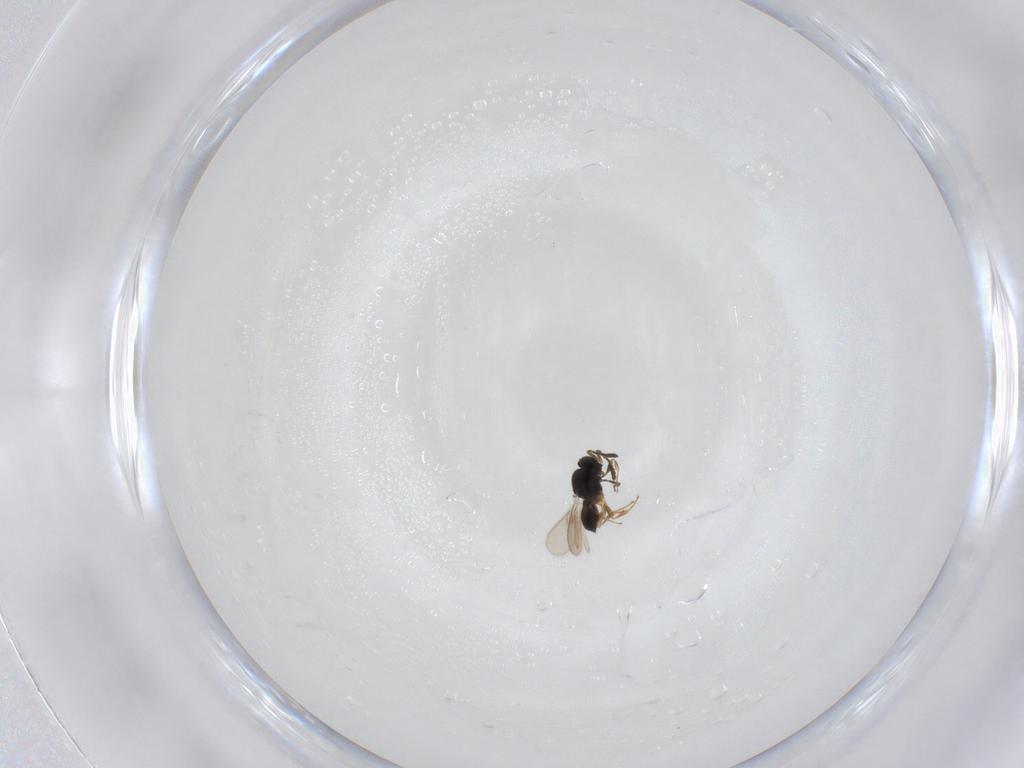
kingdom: Animalia
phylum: Arthropoda
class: Insecta
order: Hymenoptera
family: Scelionidae
